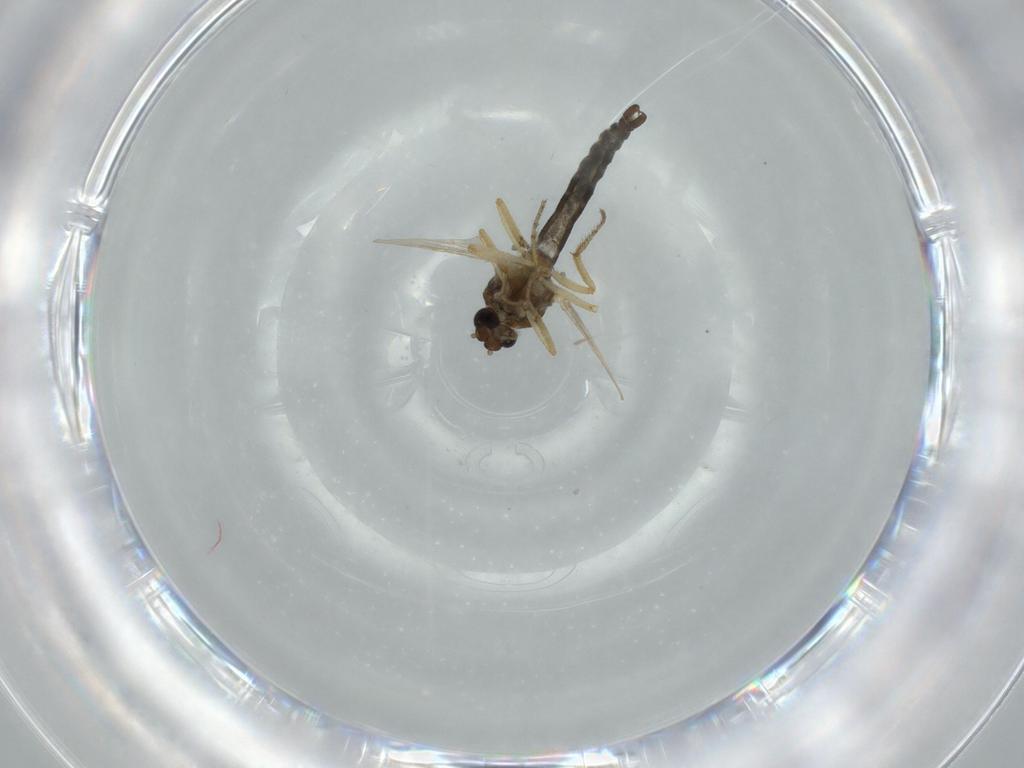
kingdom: Animalia
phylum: Arthropoda
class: Insecta
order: Diptera
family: Ceratopogonidae
